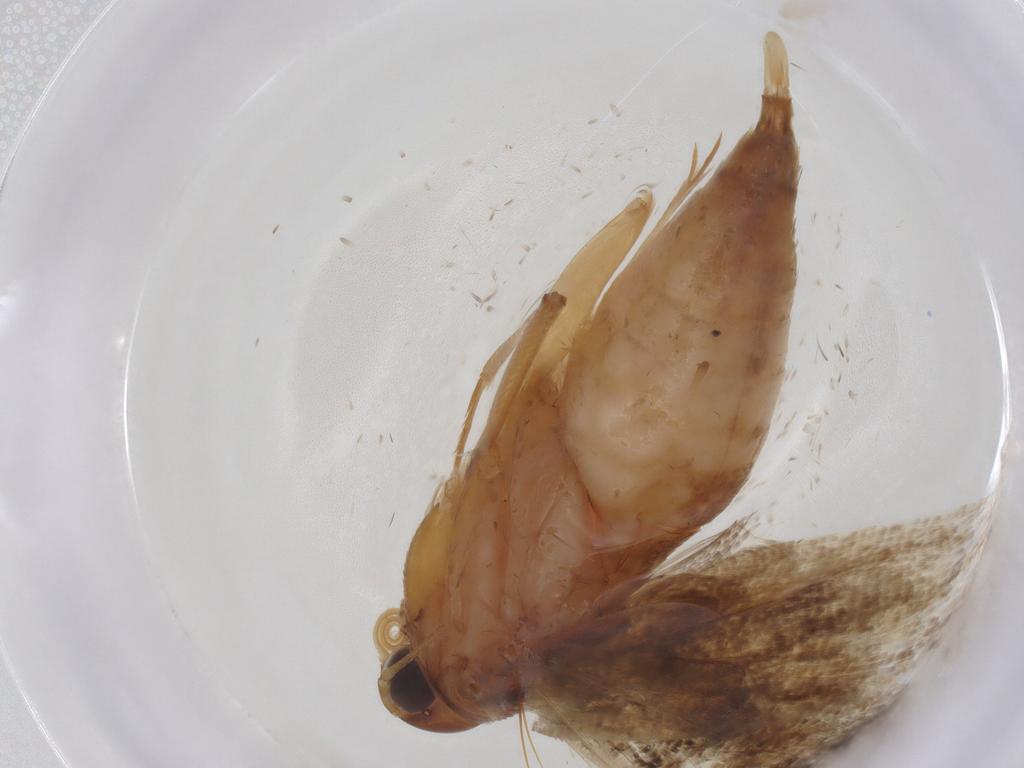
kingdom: Animalia
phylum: Arthropoda
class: Insecta
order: Lepidoptera
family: Gelechiidae
